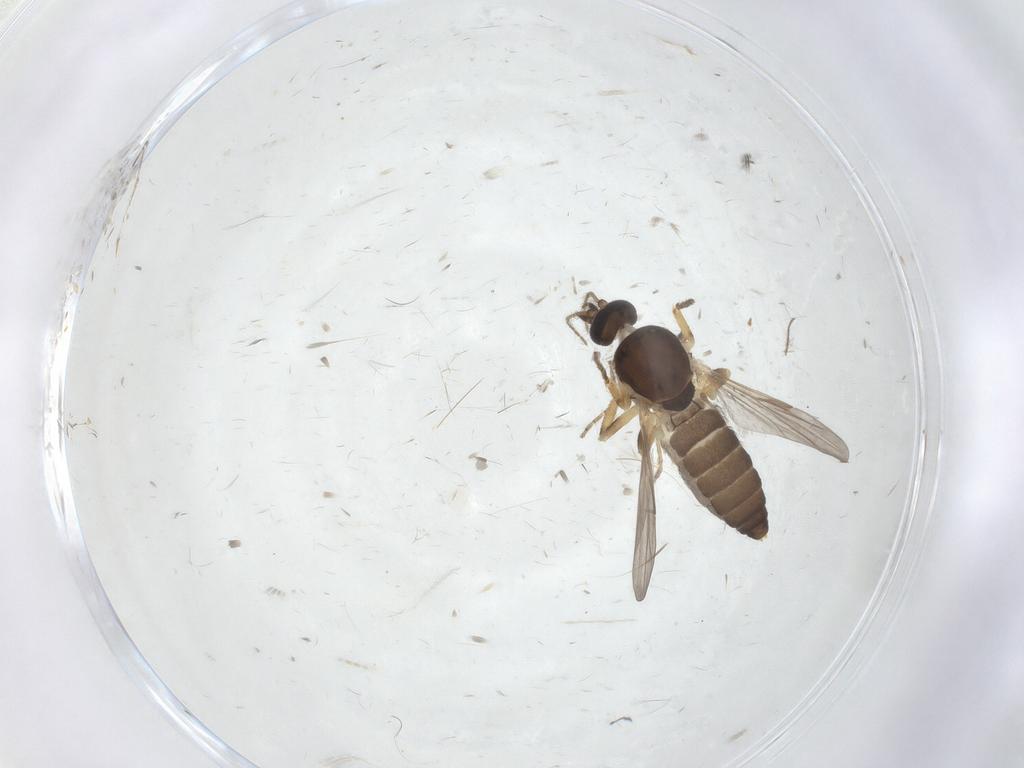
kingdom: Animalia
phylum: Arthropoda
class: Insecta
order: Diptera
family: Ceratopogonidae
